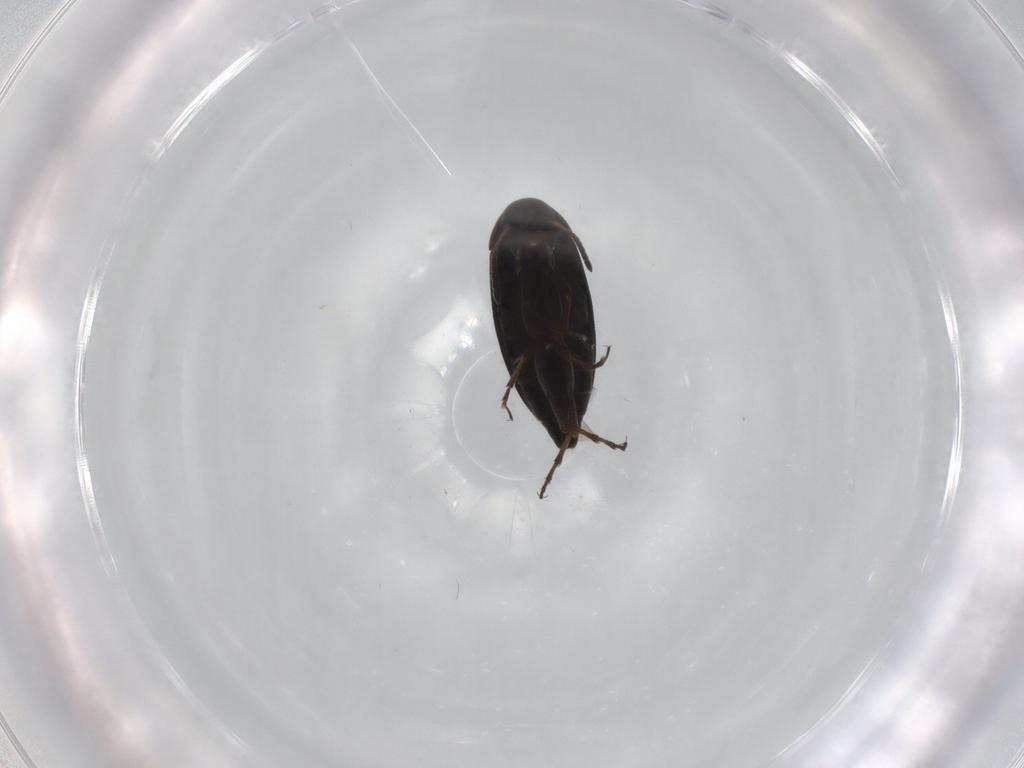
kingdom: Animalia
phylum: Arthropoda
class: Insecta
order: Coleoptera
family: Scraptiidae
